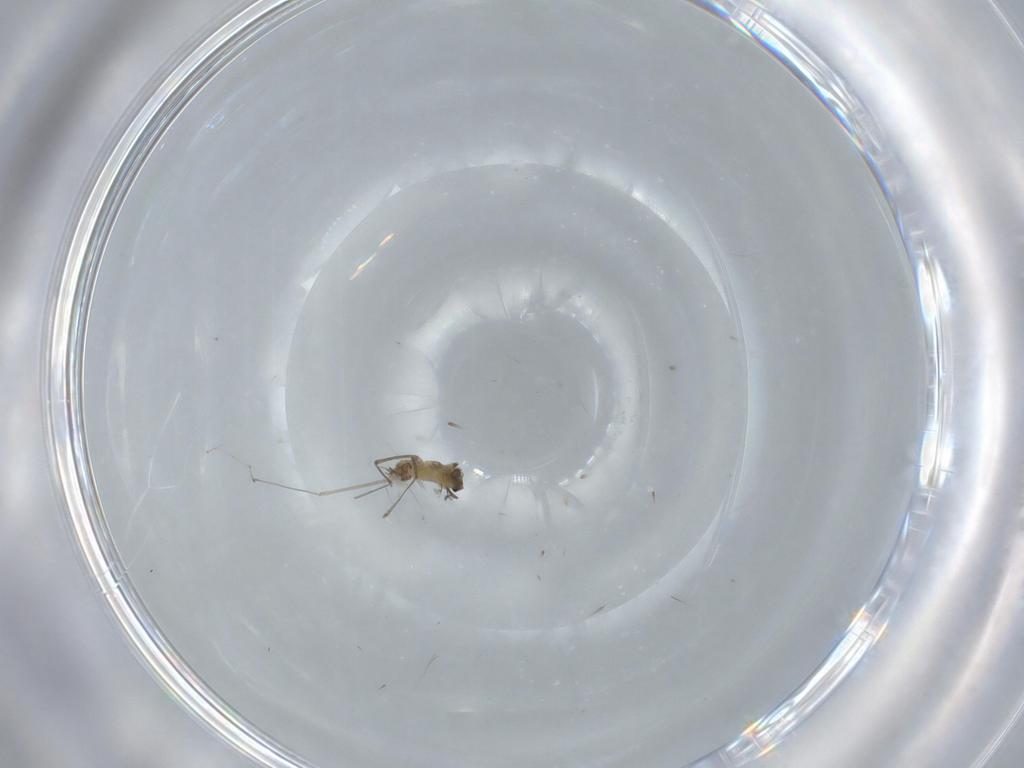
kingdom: Animalia
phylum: Arthropoda
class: Insecta
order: Diptera
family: Cecidomyiidae
